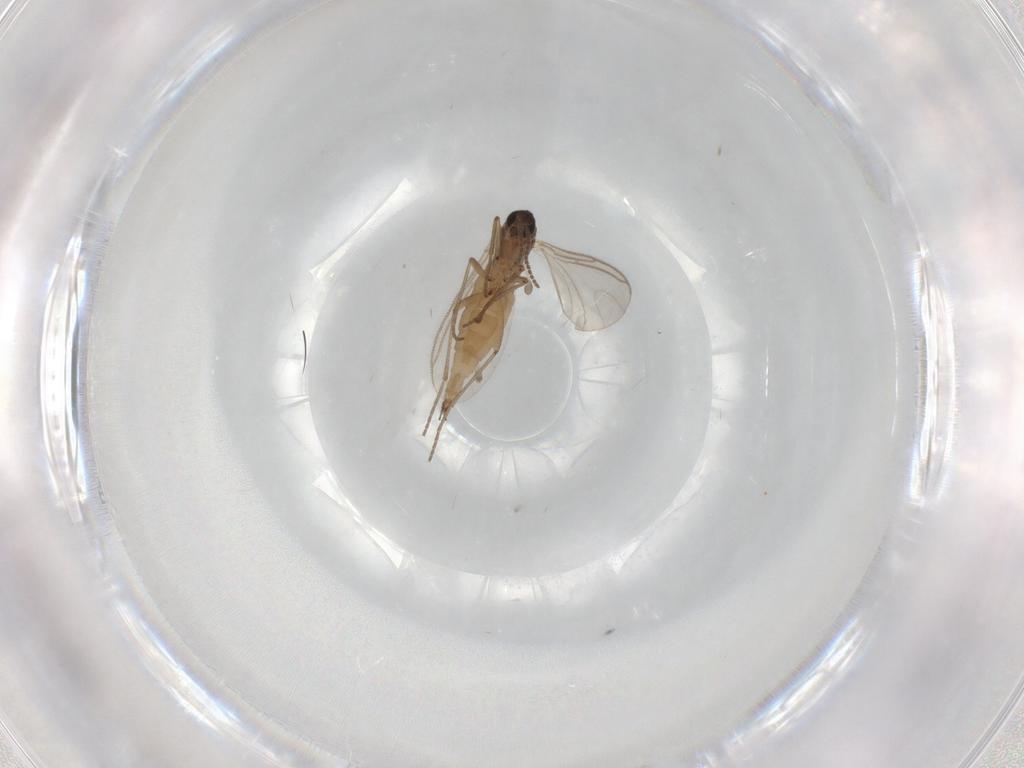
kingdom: Animalia
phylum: Arthropoda
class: Insecta
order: Diptera
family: Sciaridae
